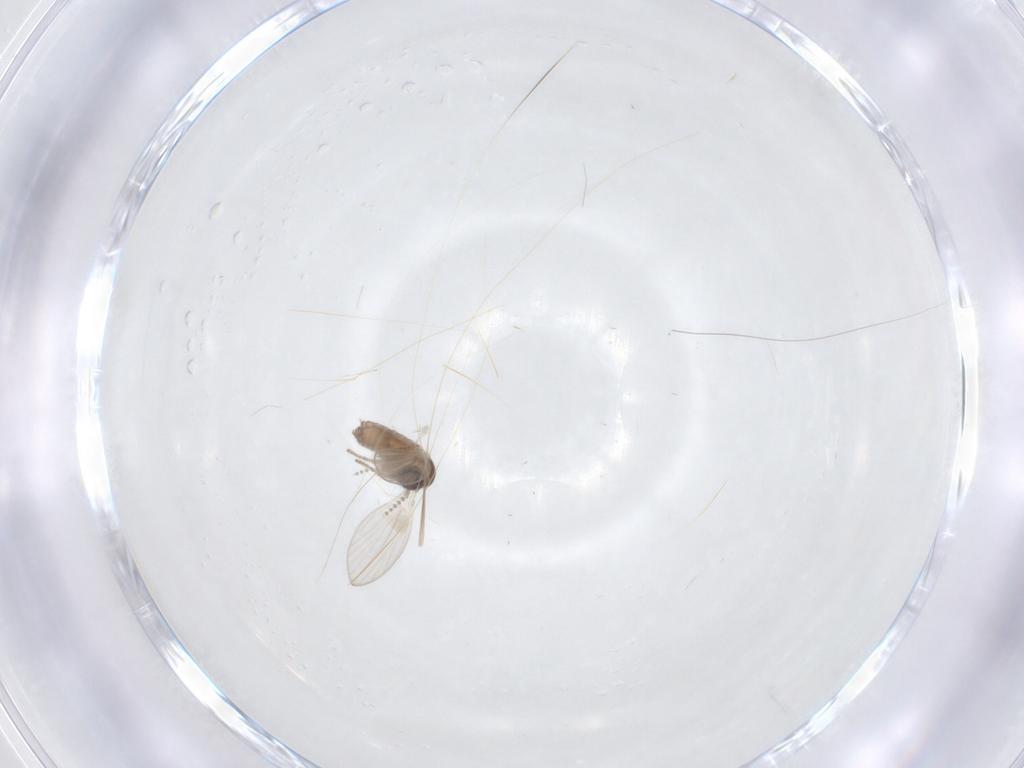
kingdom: Animalia
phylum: Arthropoda
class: Insecta
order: Diptera
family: Psychodidae
